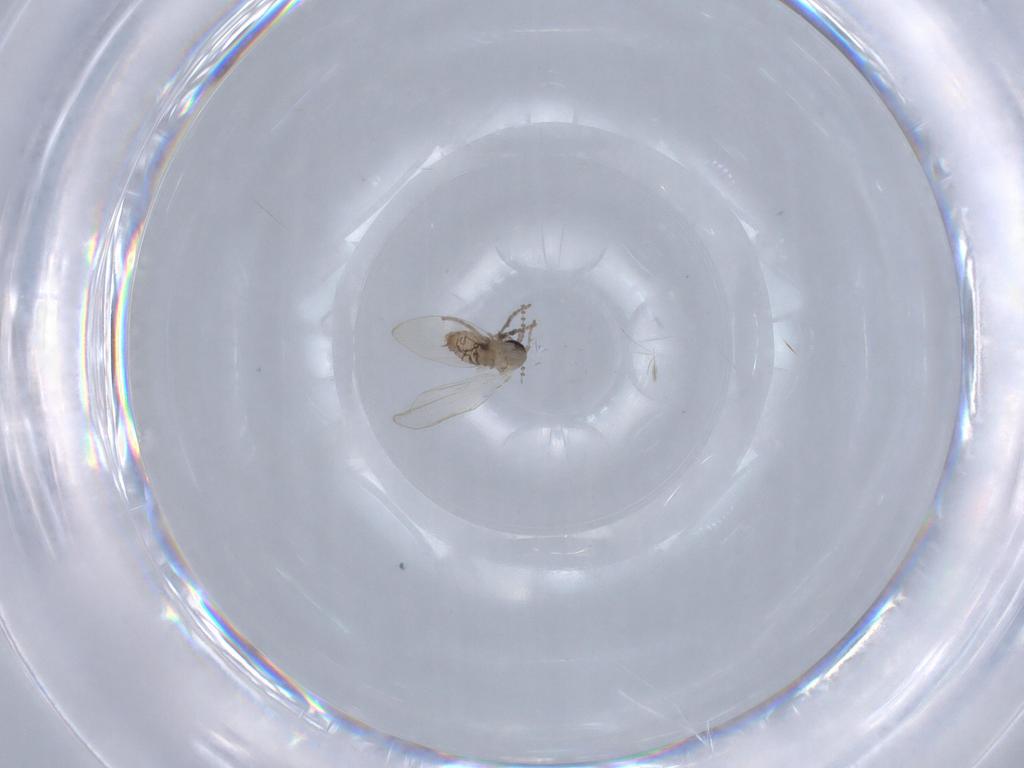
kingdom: Animalia
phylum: Arthropoda
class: Insecta
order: Diptera
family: Psychodidae
